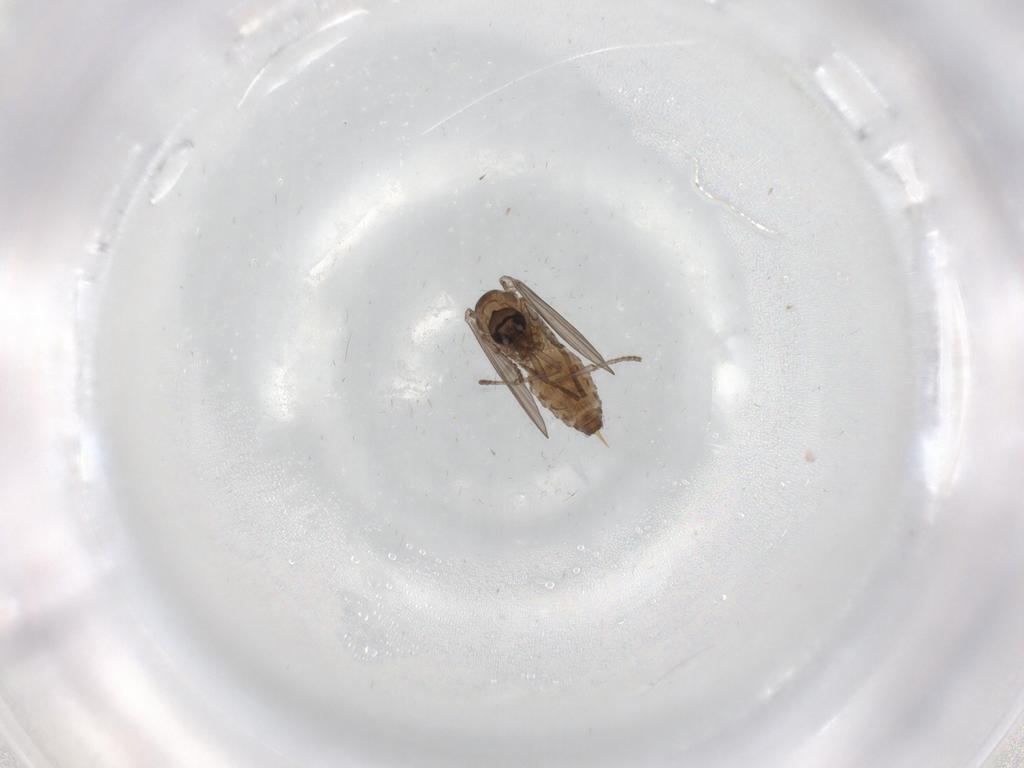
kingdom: Animalia
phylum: Arthropoda
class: Insecta
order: Diptera
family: Psychodidae
